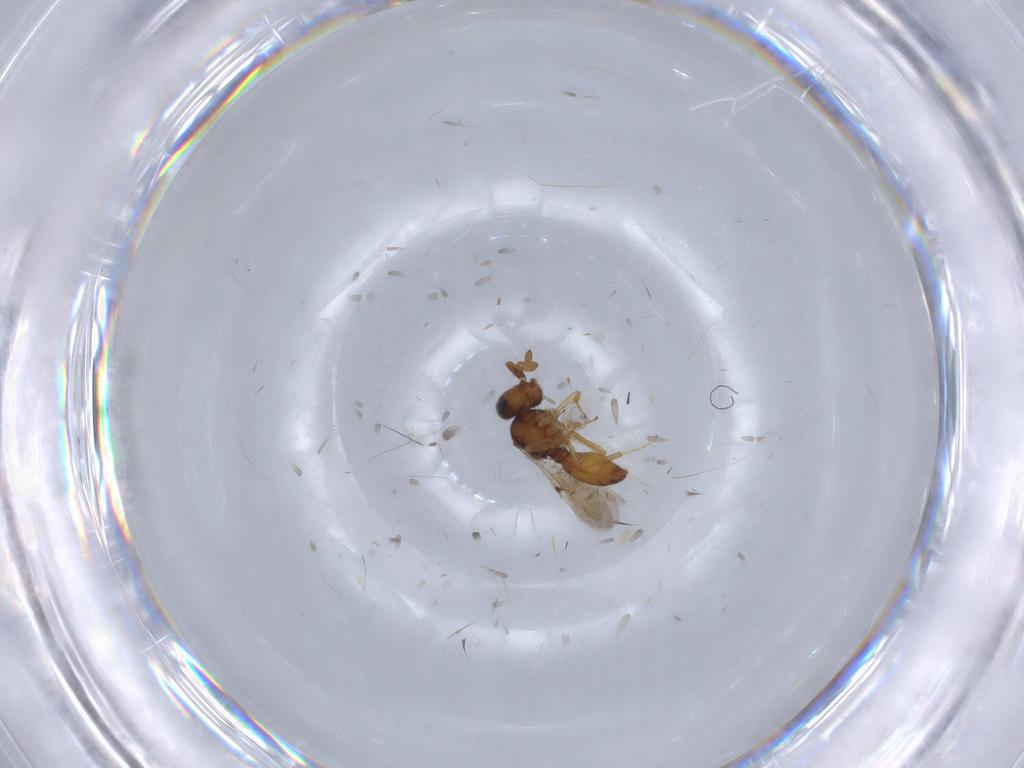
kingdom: Animalia
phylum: Arthropoda
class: Insecta
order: Hymenoptera
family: Scelionidae
